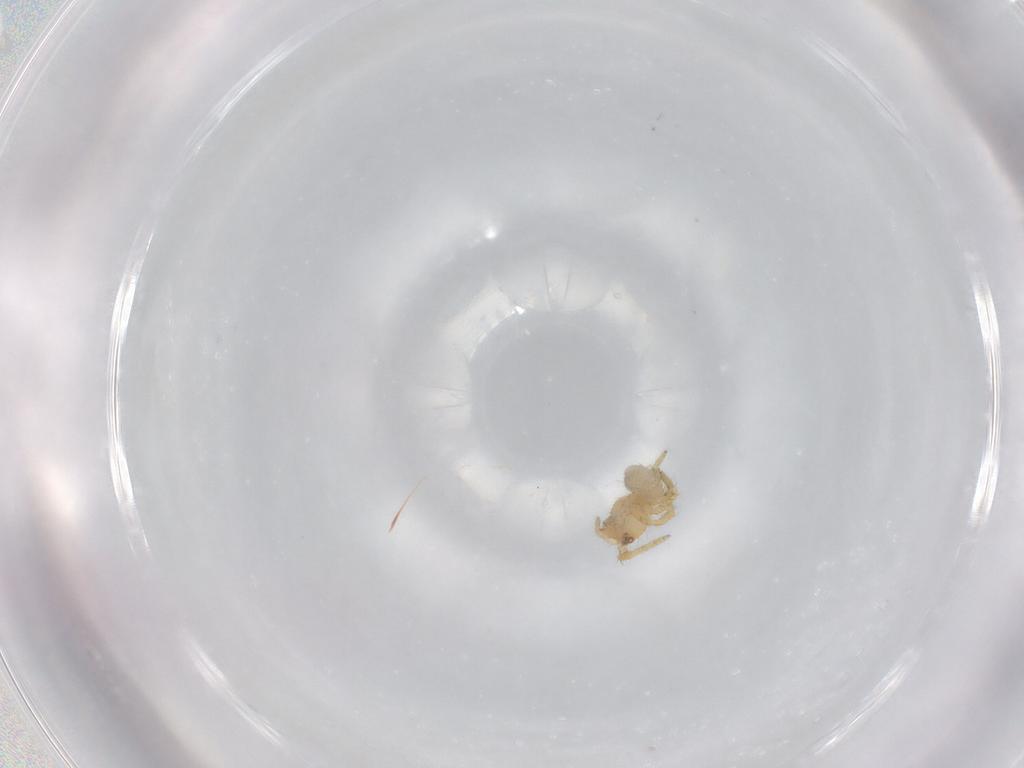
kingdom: Animalia
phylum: Arthropoda
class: Arachnida
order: Araneae
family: Theridiidae
